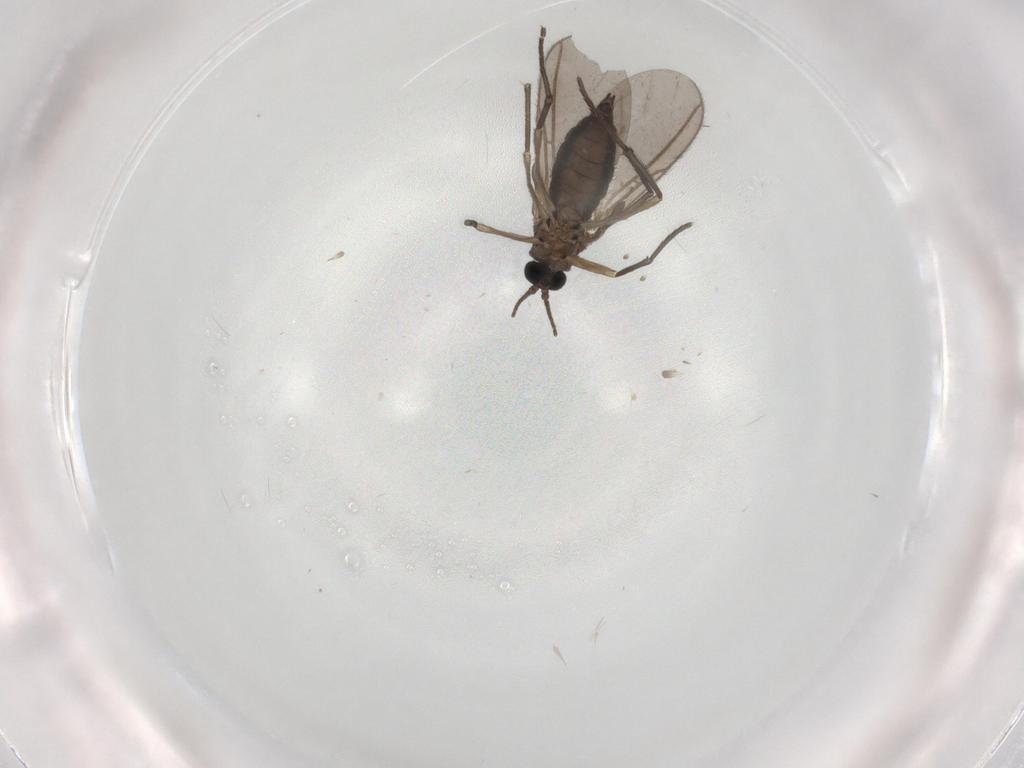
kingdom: Animalia
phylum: Arthropoda
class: Insecta
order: Diptera
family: Sciaridae
